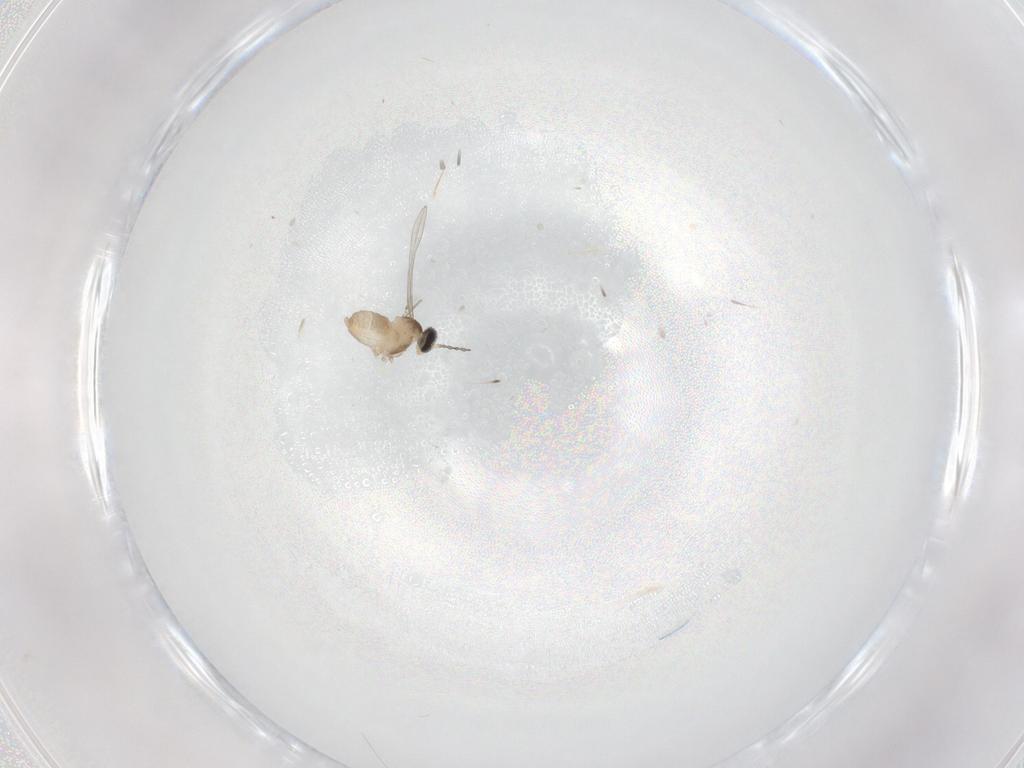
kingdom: Animalia
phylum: Arthropoda
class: Insecta
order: Diptera
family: Cecidomyiidae
